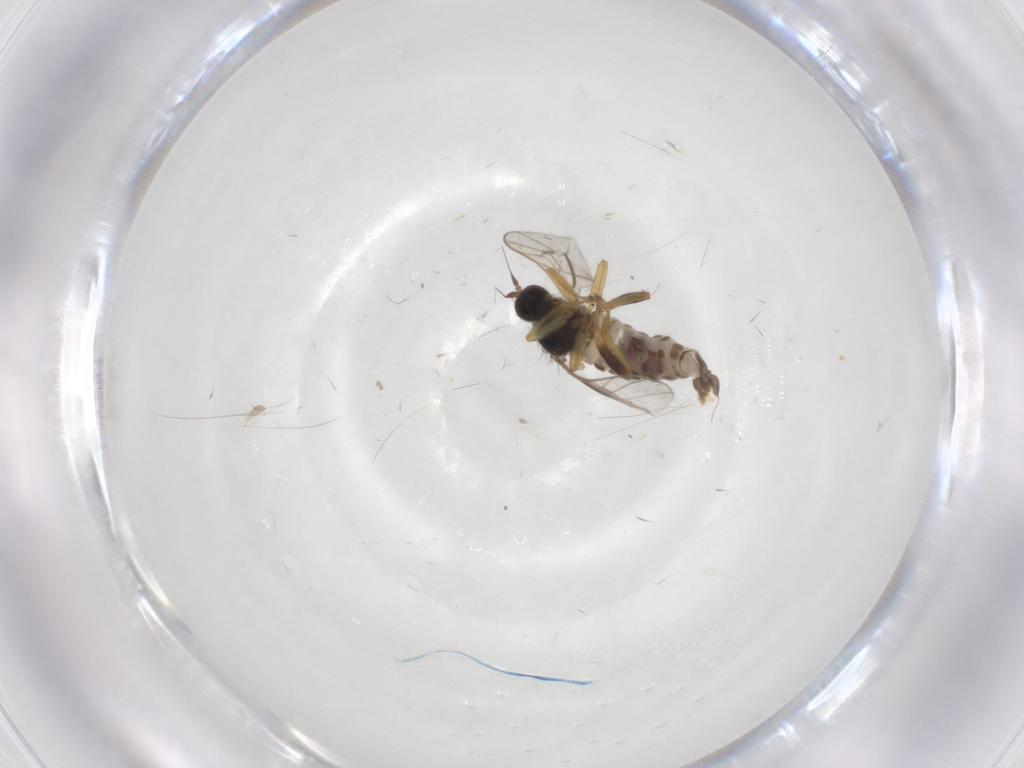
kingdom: Animalia
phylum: Arthropoda
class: Insecta
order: Diptera
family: Hybotidae
